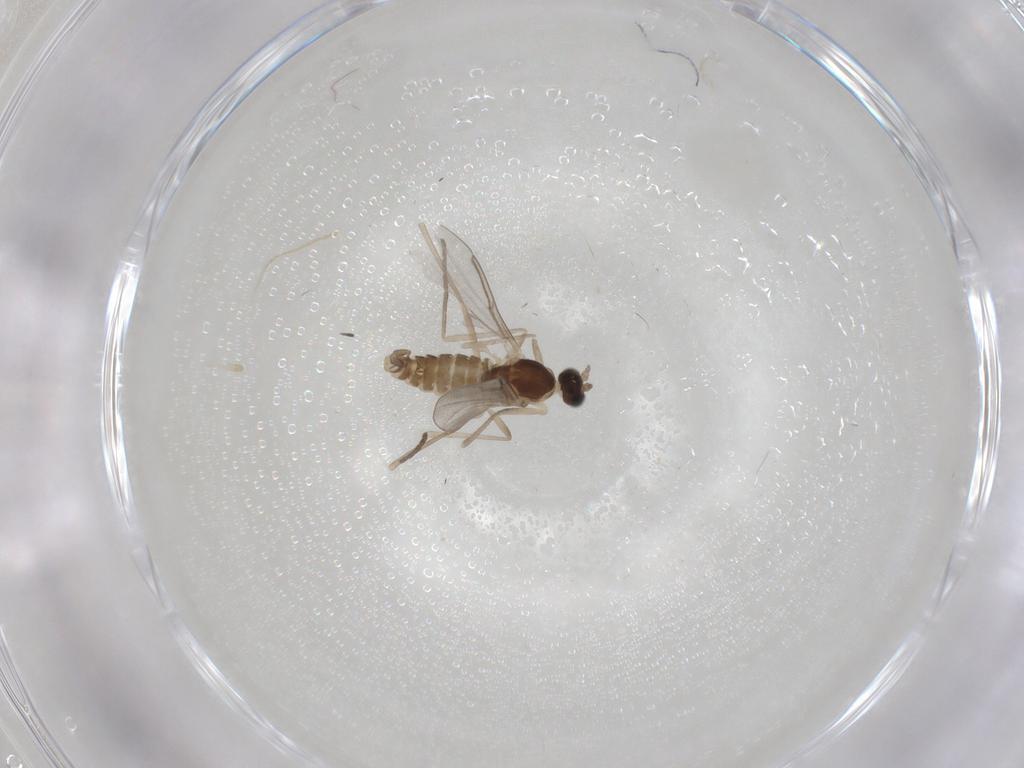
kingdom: Animalia
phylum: Arthropoda
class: Insecta
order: Diptera
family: Cecidomyiidae
